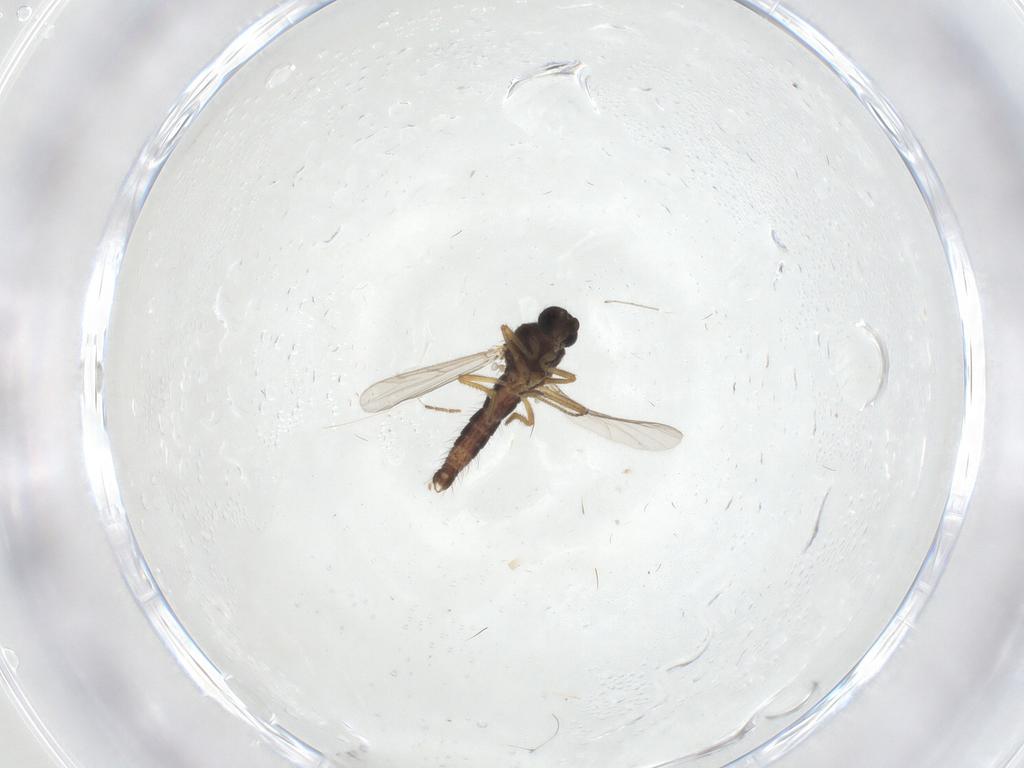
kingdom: Animalia
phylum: Arthropoda
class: Insecta
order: Diptera
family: Ceratopogonidae
